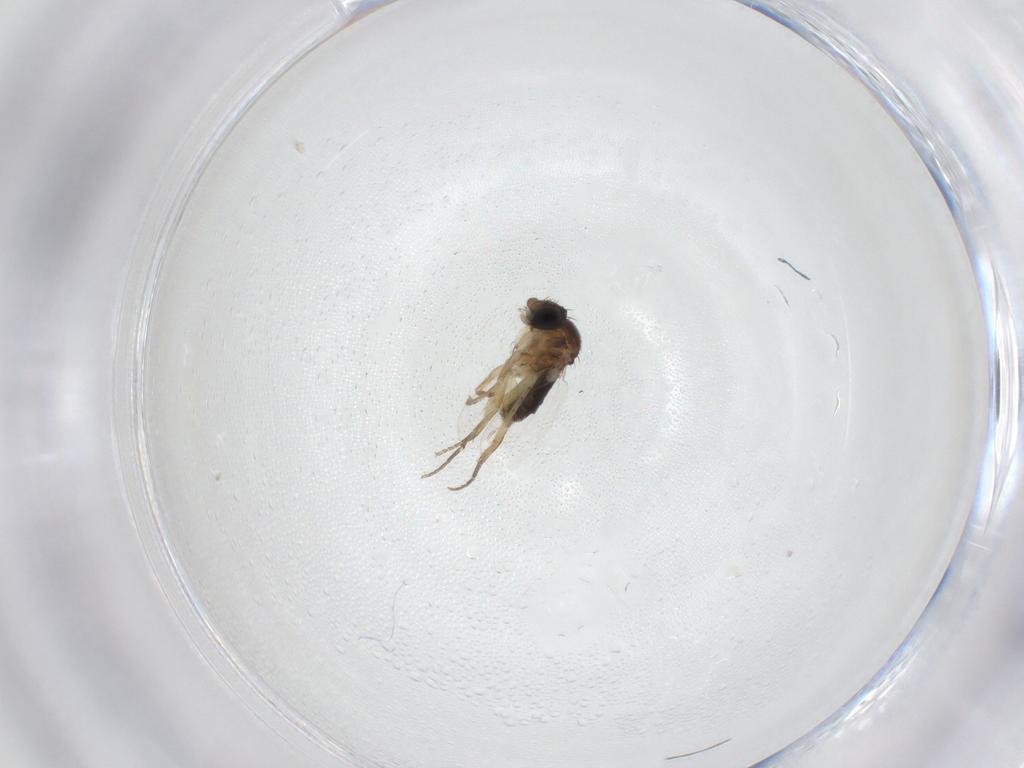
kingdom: Animalia
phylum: Arthropoda
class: Insecta
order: Diptera
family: Phoridae
